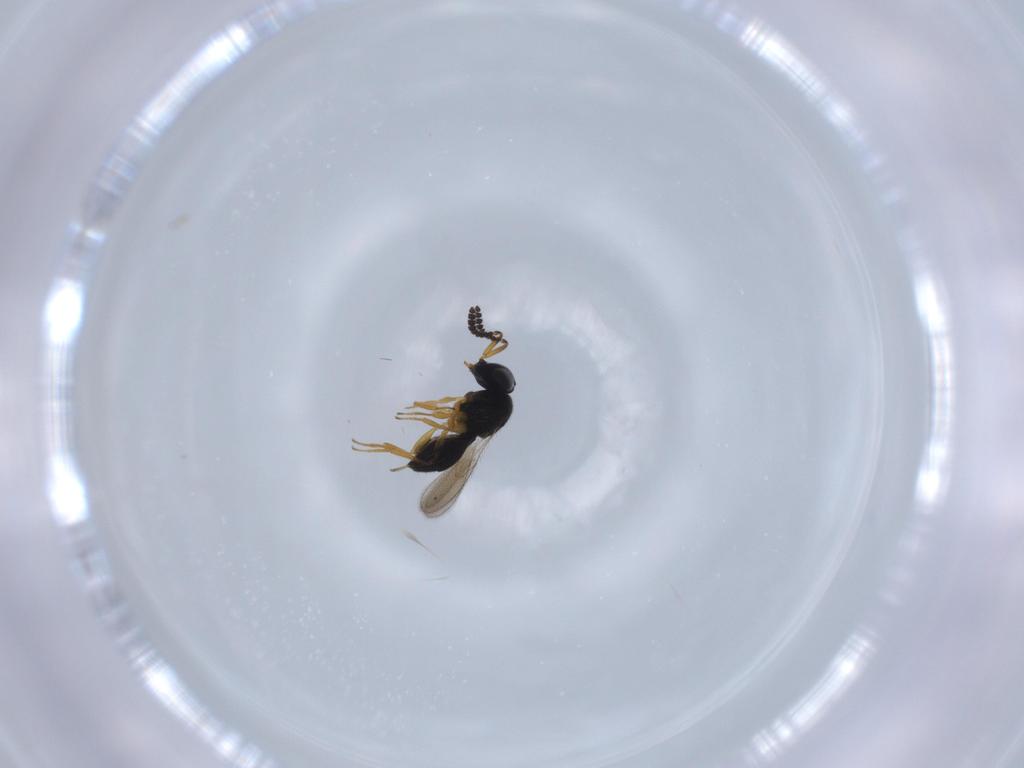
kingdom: Animalia
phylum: Arthropoda
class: Insecta
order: Hymenoptera
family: Scelionidae
